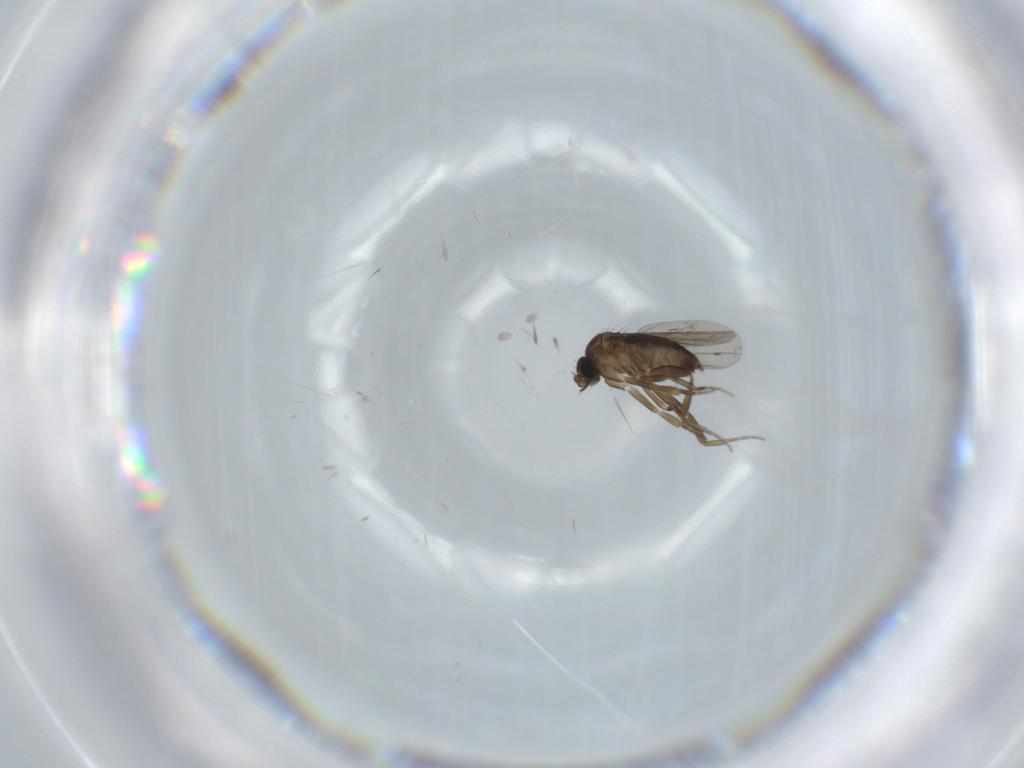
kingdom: Animalia
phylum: Arthropoda
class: Insecta
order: Diptera
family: Phoridae
